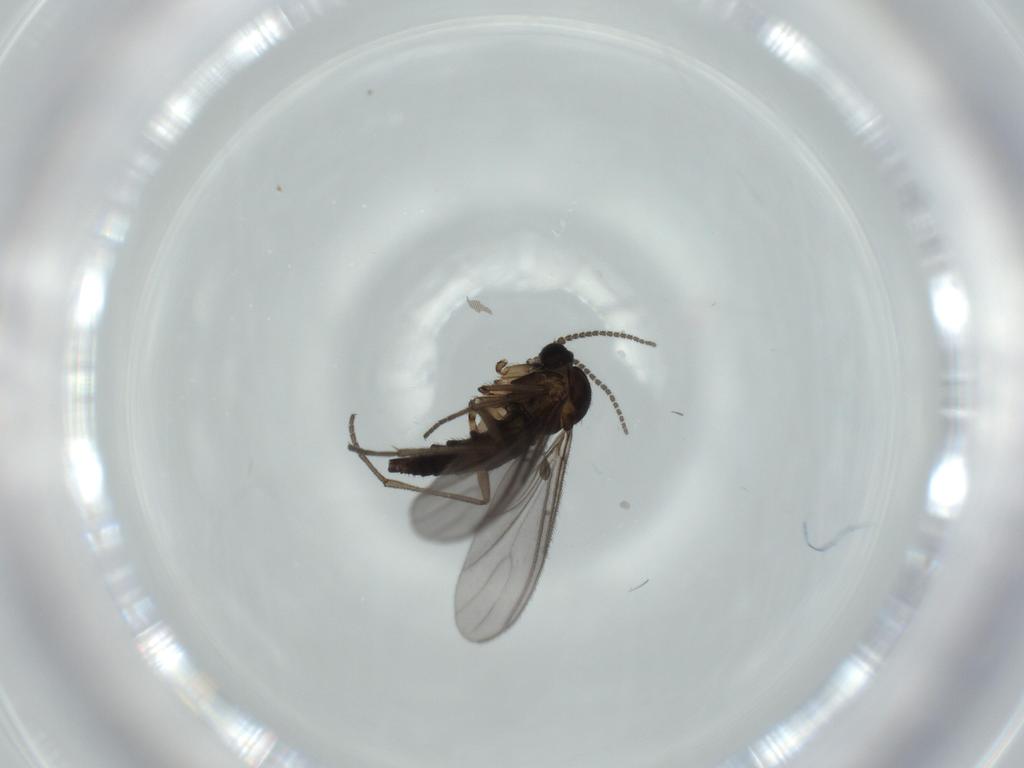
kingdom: Animalia
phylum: Arthropoda
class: Insecta
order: Diptera
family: Sciaridae
